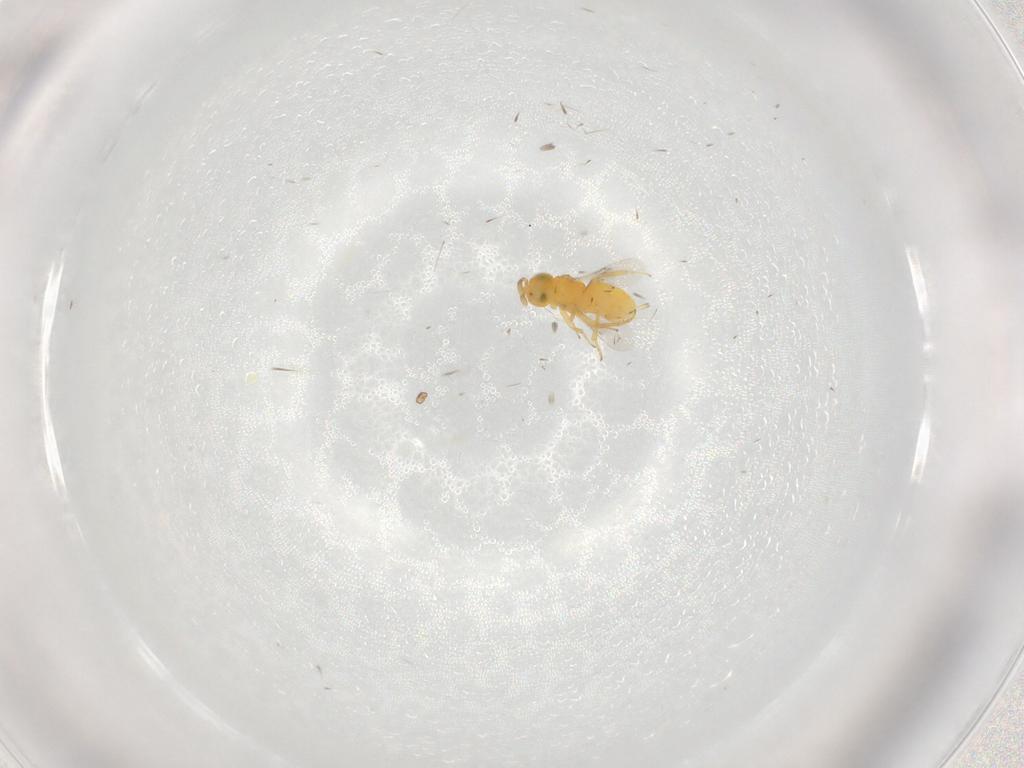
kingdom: Animalia
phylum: Arthropoda
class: Insecta
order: Hymenoptera
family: Encyrtidae
